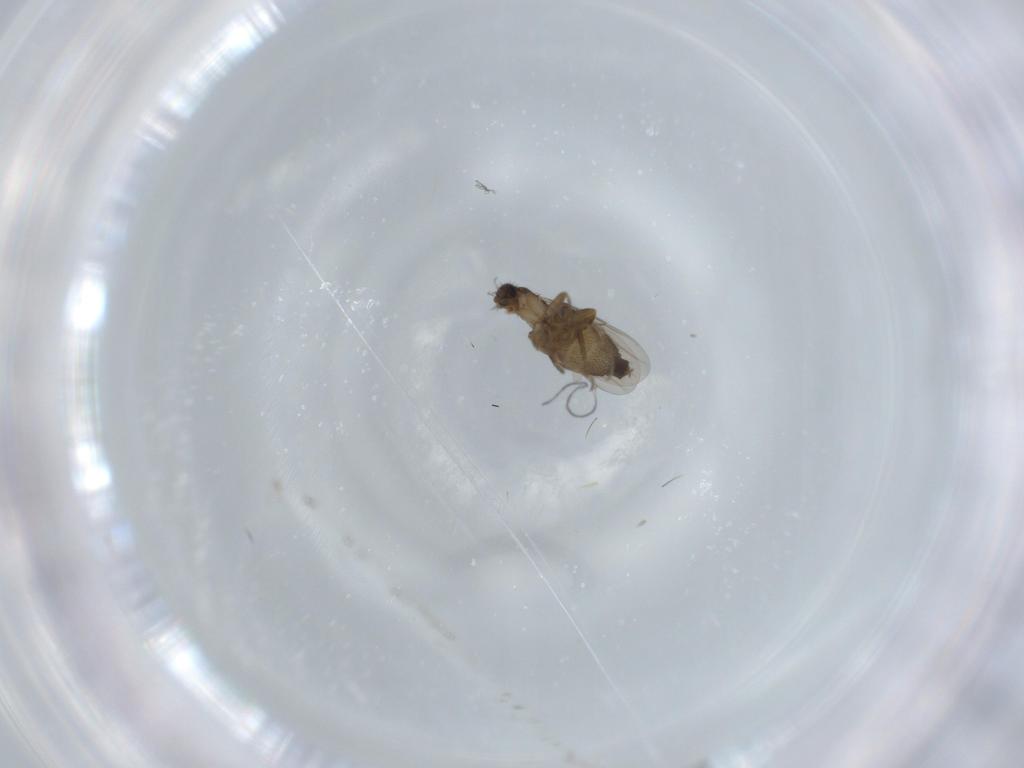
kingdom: Animalia
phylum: Arthropoda
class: Insecta
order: Diptera
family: Phoridae
